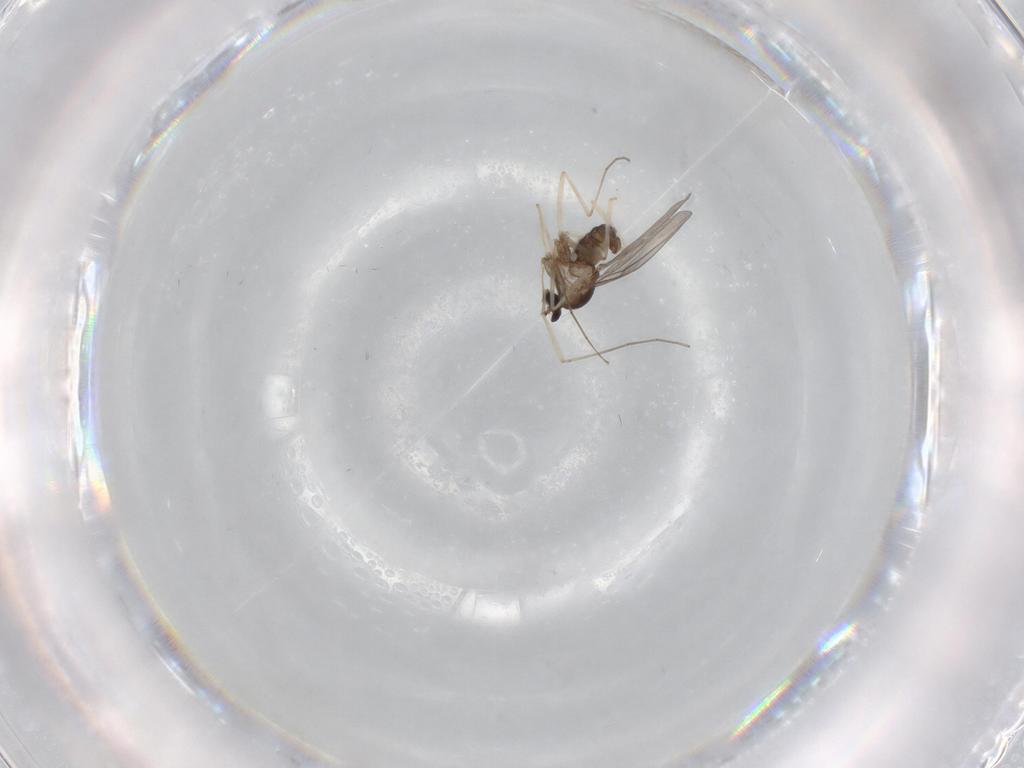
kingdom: Animalia
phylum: Arthropoda
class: Insecta
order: Diptera
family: Cecidomyiidae
